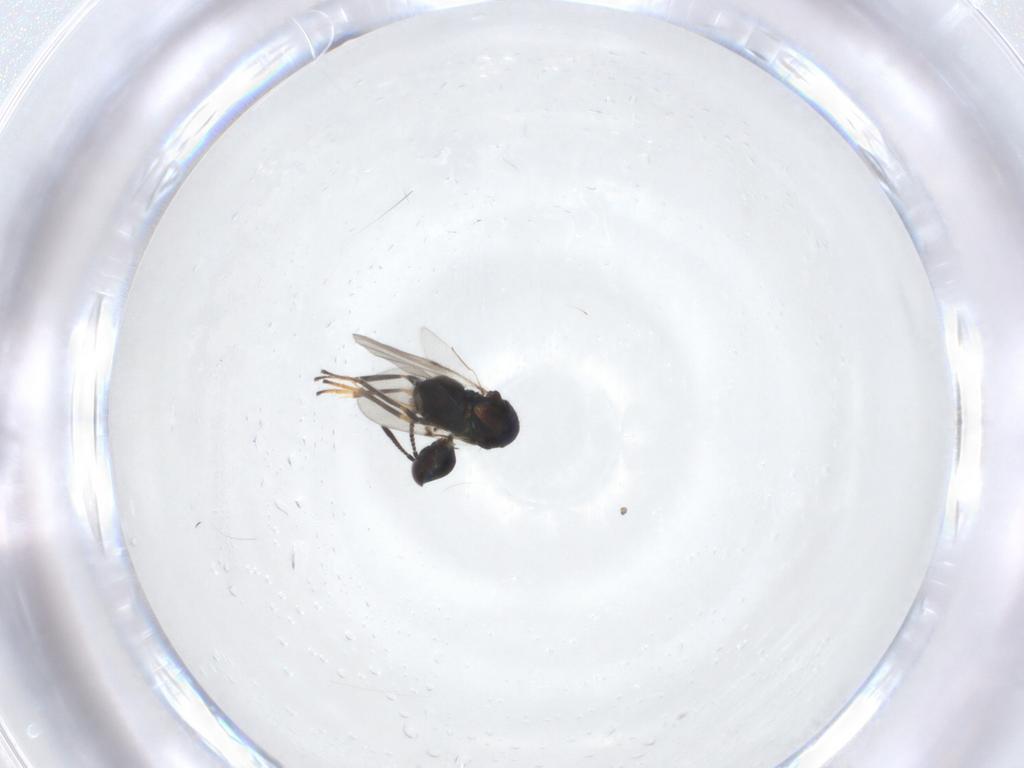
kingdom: Animalia
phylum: Arthropoda
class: Insecta
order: Hymenoptera
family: Encyrtidae
